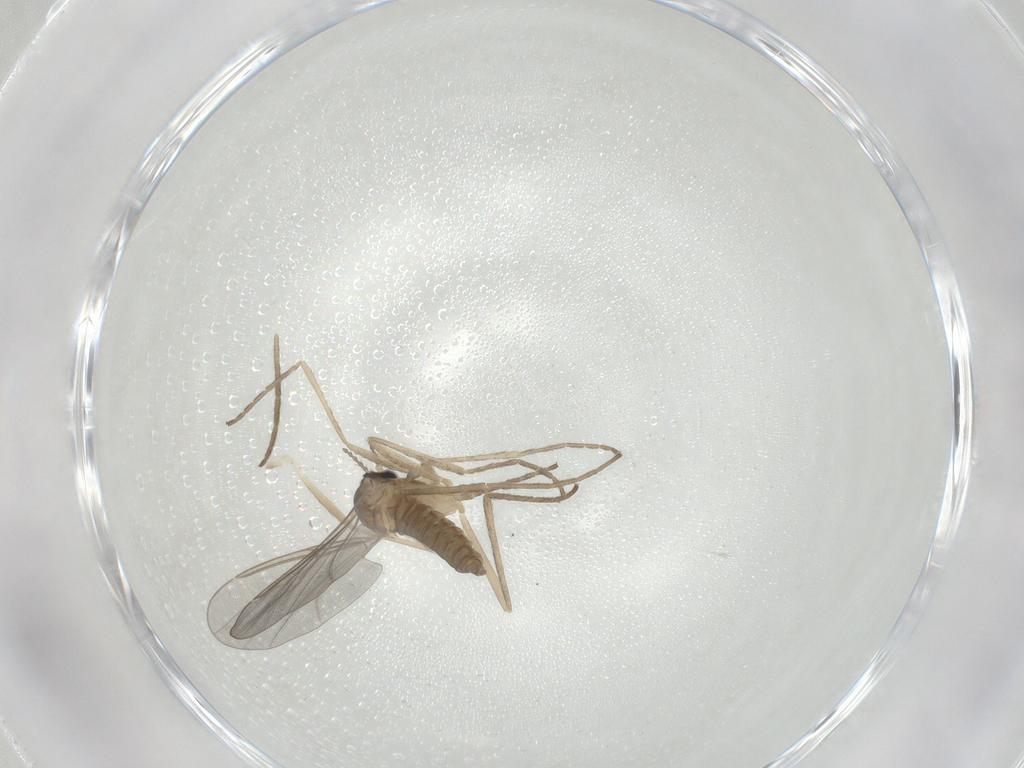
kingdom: Animalia
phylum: Arthropoda
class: Insecta
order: Diptera
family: Cecidomyiidae
